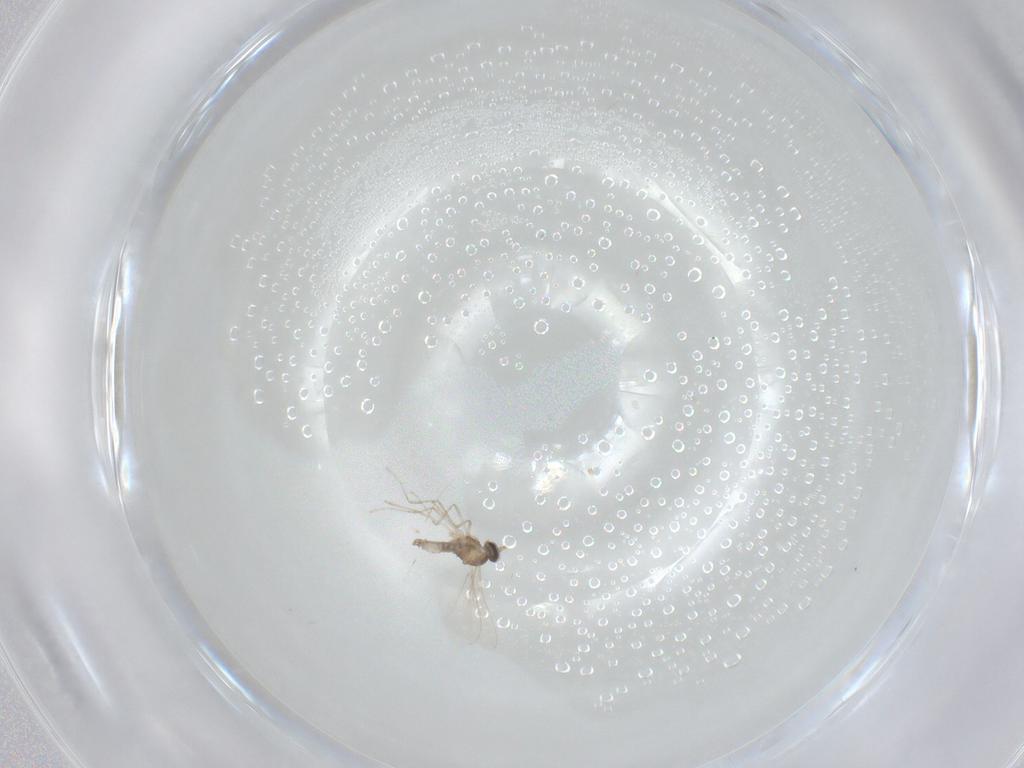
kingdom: Animalia
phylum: Arthropoda
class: Insecta
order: Diptera
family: Cecidomyiidae
